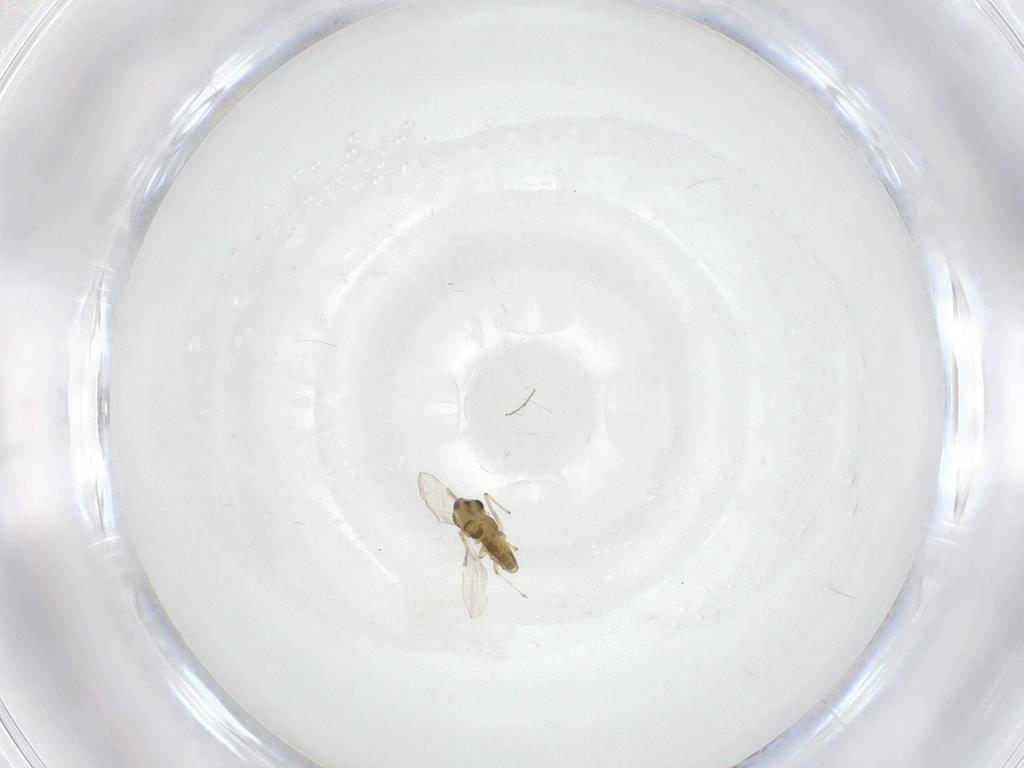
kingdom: Animalia
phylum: Arthropoda
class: Insecta
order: Diptera
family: Chironomidae
